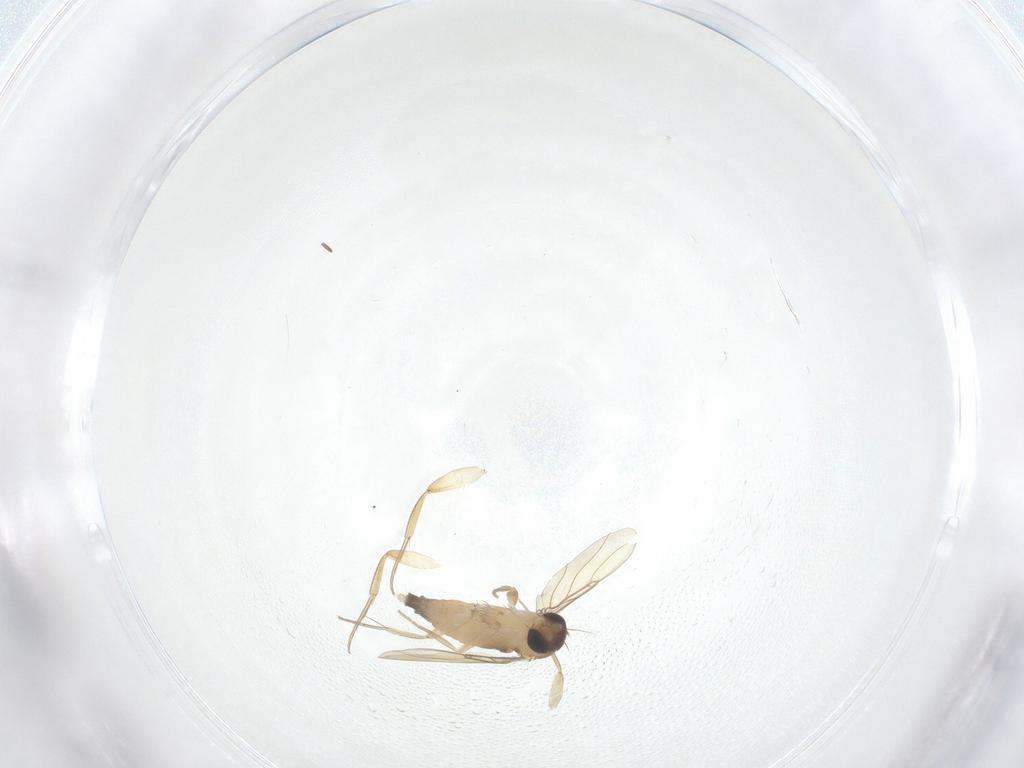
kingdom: Animalia
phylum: Arthropoda
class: Insecta
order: Diptera
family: Phoridae
